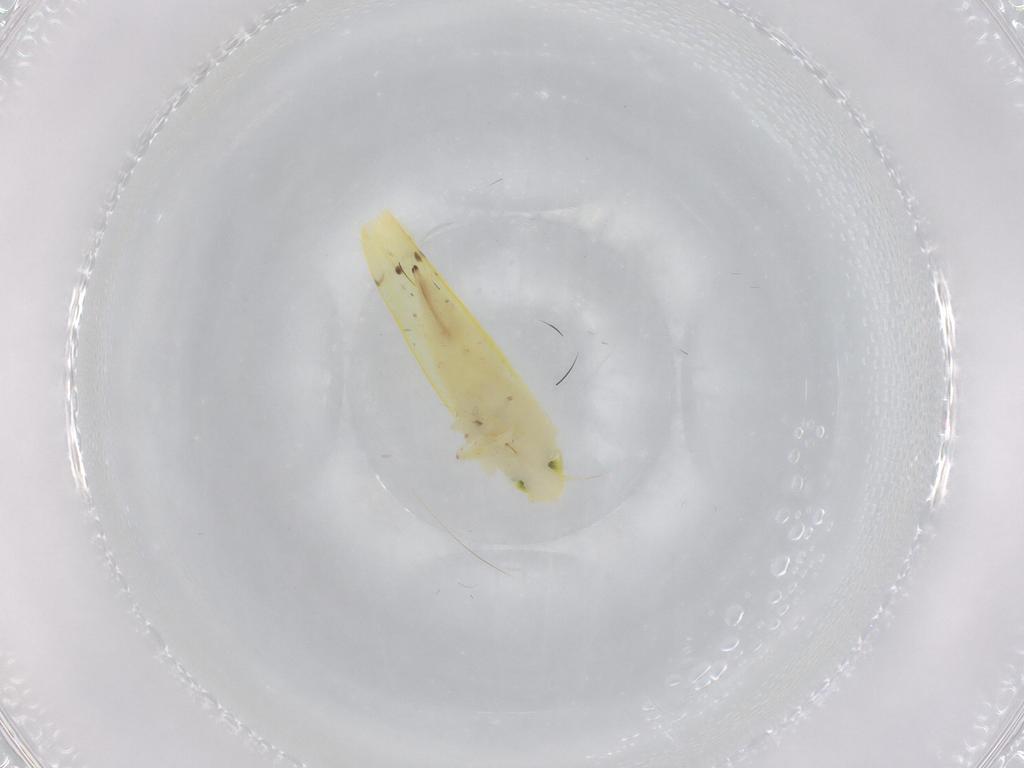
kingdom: Animalia
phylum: Arthropoda
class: Insecta
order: Hemiptera
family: Cicadellidae
